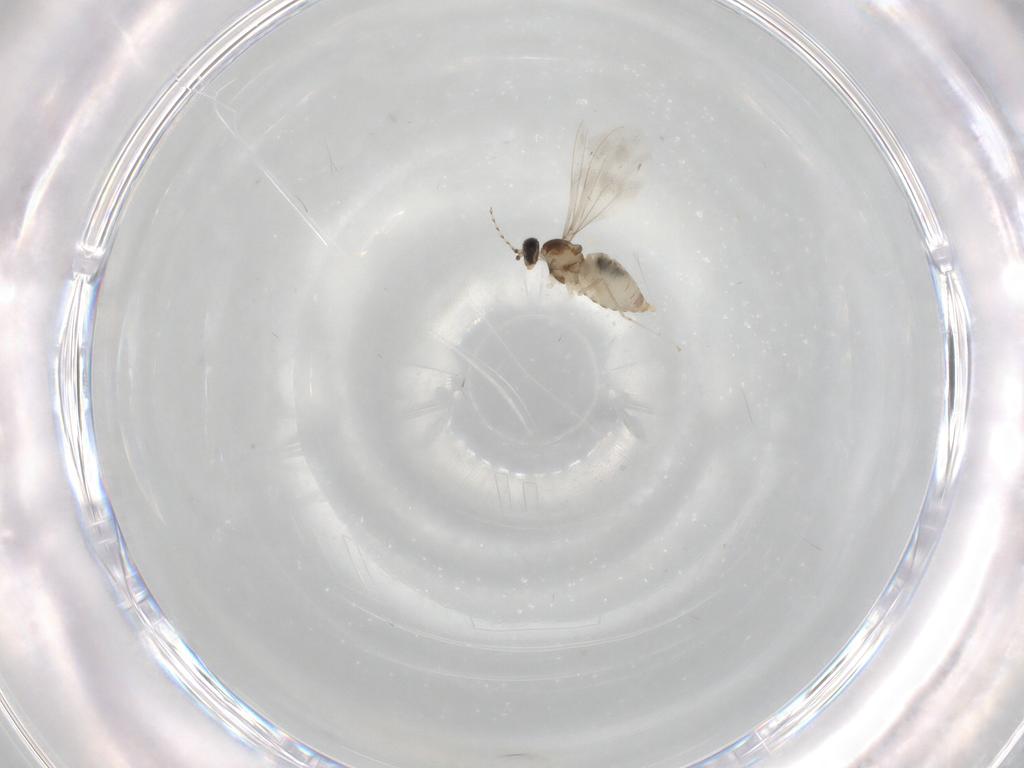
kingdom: Animalia
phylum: Arthropoda
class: Insecta
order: Diptera
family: Cecidomyiidae
